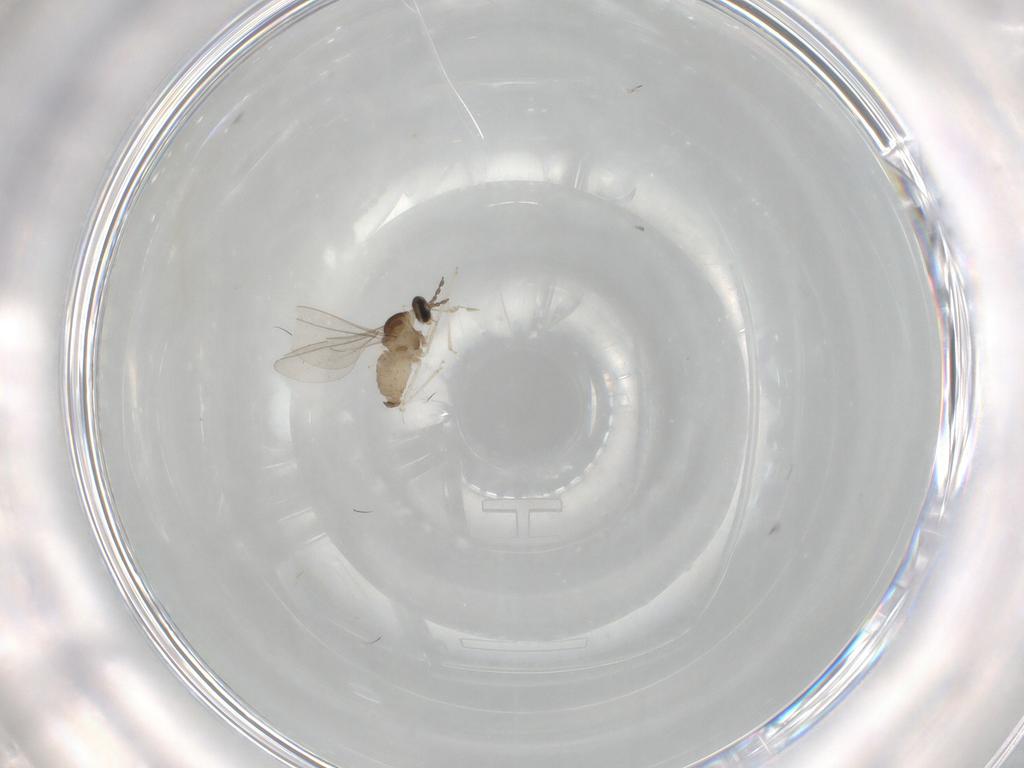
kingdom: Animalia
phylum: Arthropoda
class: Insecta
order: Diptera
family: Cecidomyiidae
